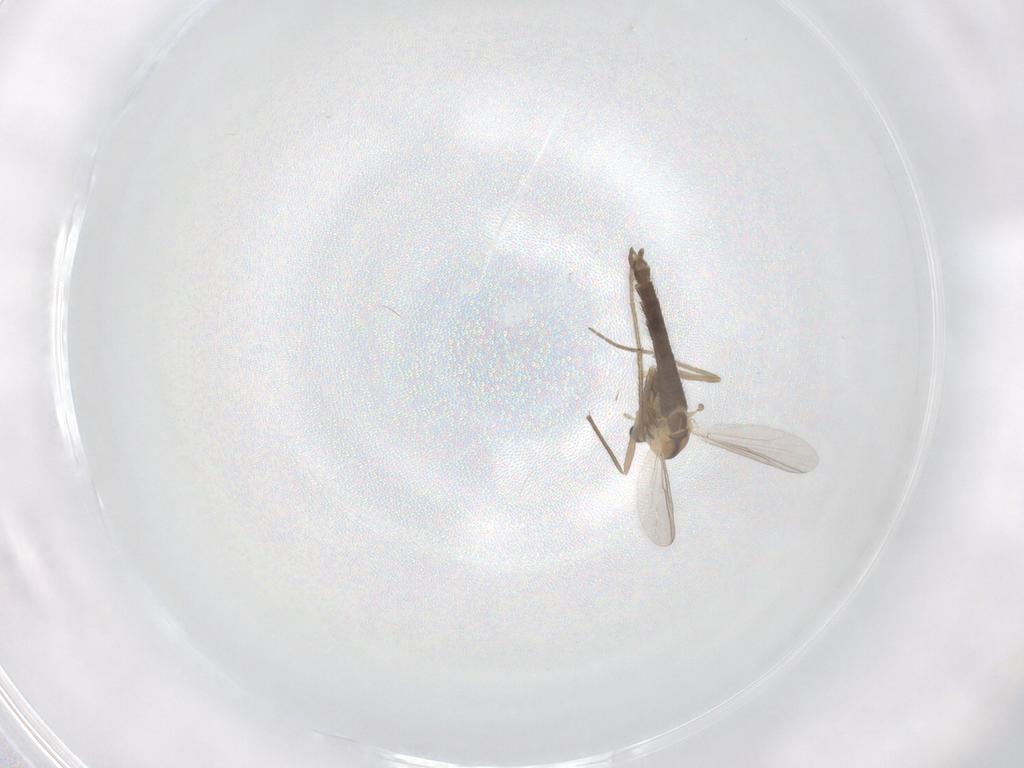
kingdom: Animalia
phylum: Arthropoda
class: Insecta
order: Diptera
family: Chironomidae
